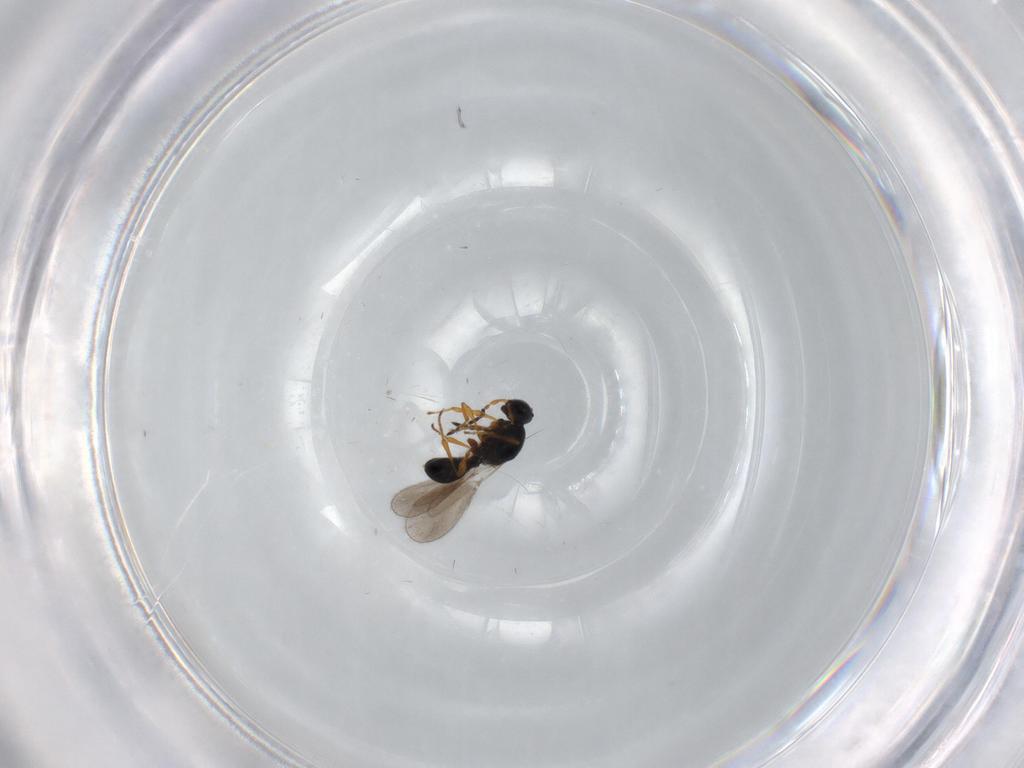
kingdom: Animalia
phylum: Arthropoda
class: Insecta
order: Hymenoptera
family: Platygastridae
